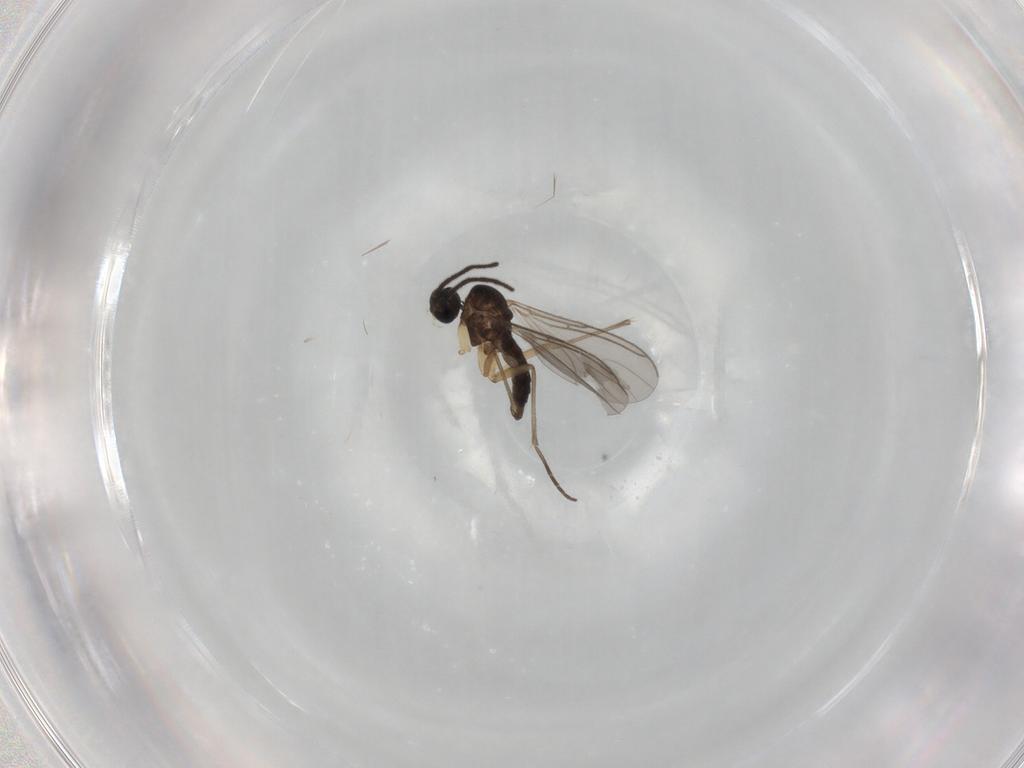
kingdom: Animalia
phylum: Arthropoda
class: Insecta
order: Diptera
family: Sciaridae
